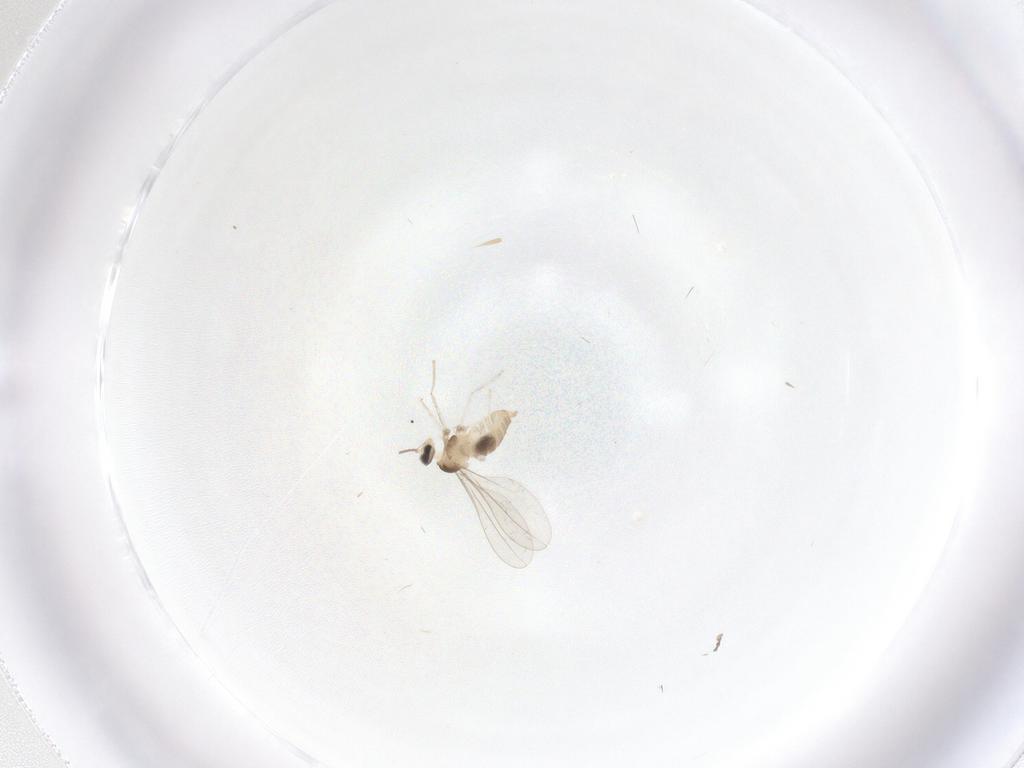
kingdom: Animalia
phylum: Arthropoda
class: Insecta
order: Diptera
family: Cecidomyiidae
